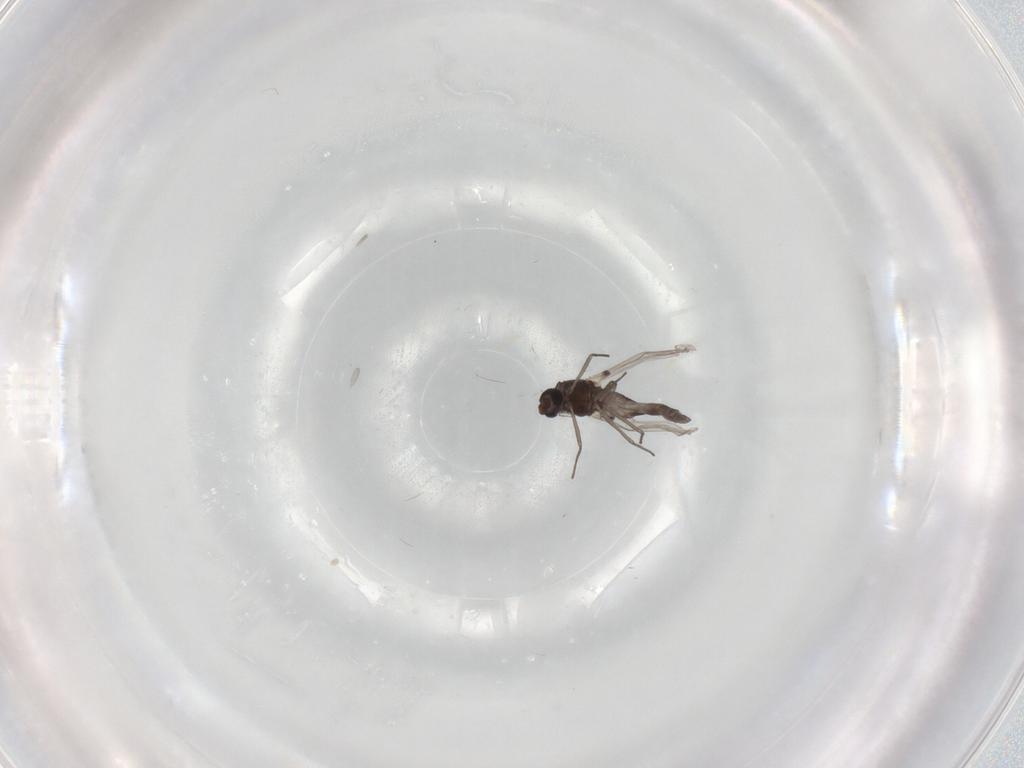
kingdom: Animalia
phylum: Arthropoda
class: Insecta
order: Diptera
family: Chironomidae
